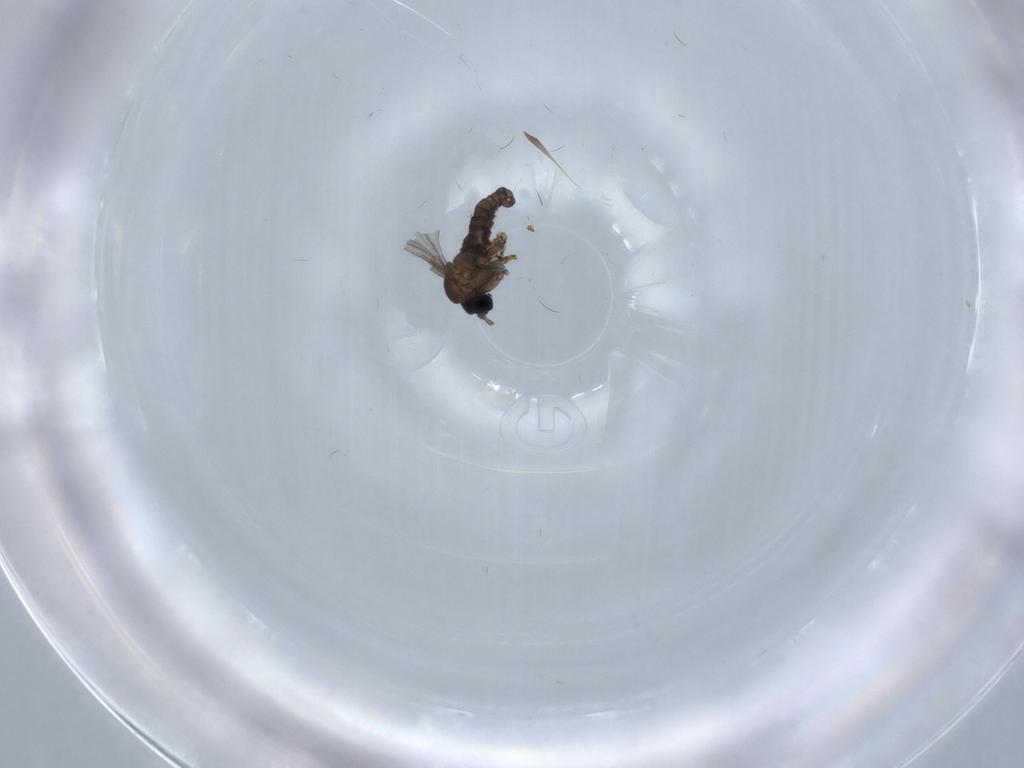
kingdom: Animalia
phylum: Arthropoda
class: Insecta
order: Diptera
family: Sciaridae
